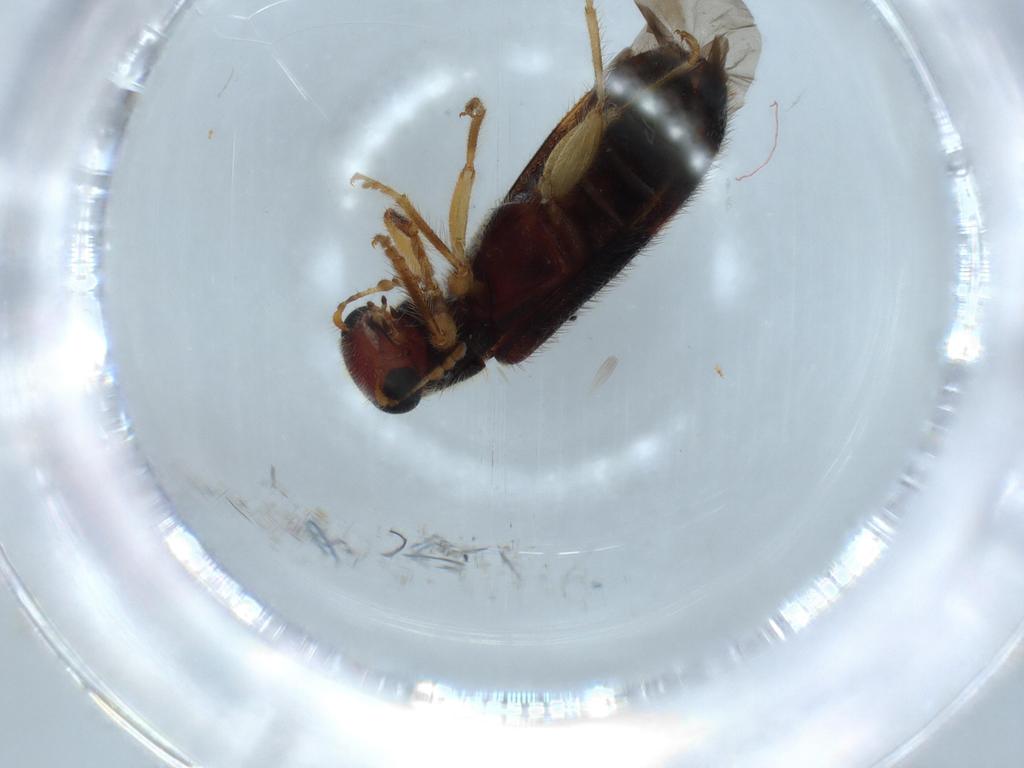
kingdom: Animalia
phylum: Arthropoda
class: Insecta
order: Coleoptera
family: Cleridae
